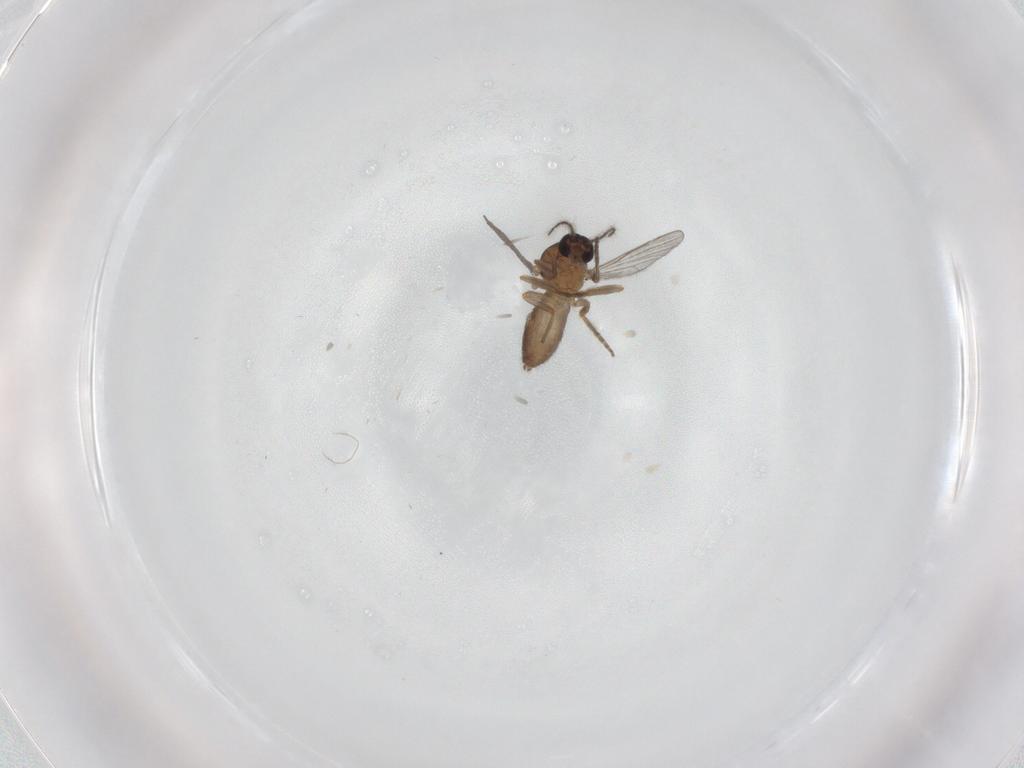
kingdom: Animalia
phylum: Arthropoda
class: Insecta
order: Diptera
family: Ceratopogonidae
